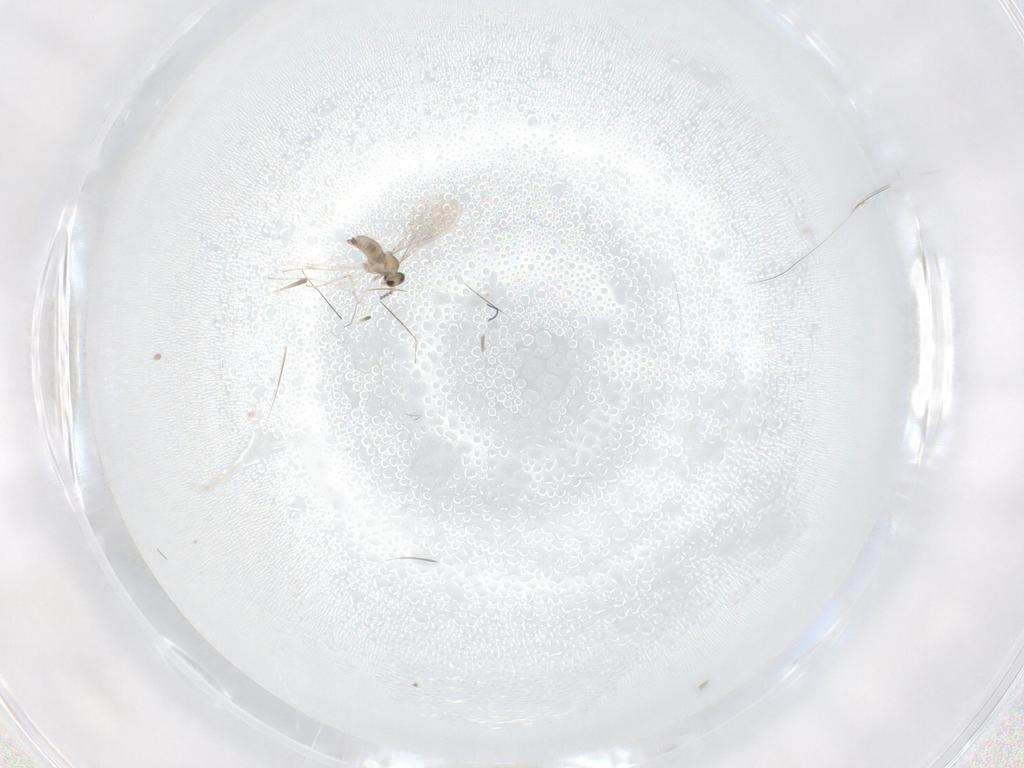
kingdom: Animalia
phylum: Arthropoda
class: Insecta
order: Diptera
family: Cecidomyiidae
